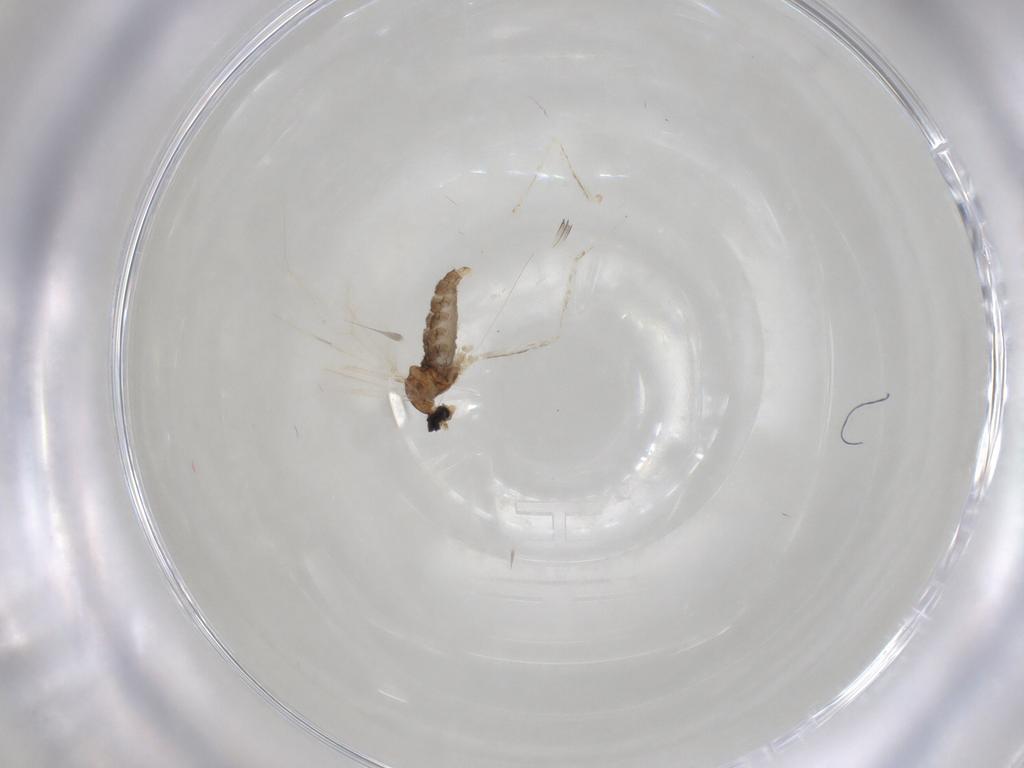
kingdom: Animalia
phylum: Arthropoda
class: Insecta
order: Diptera
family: Cecidomyiidae
